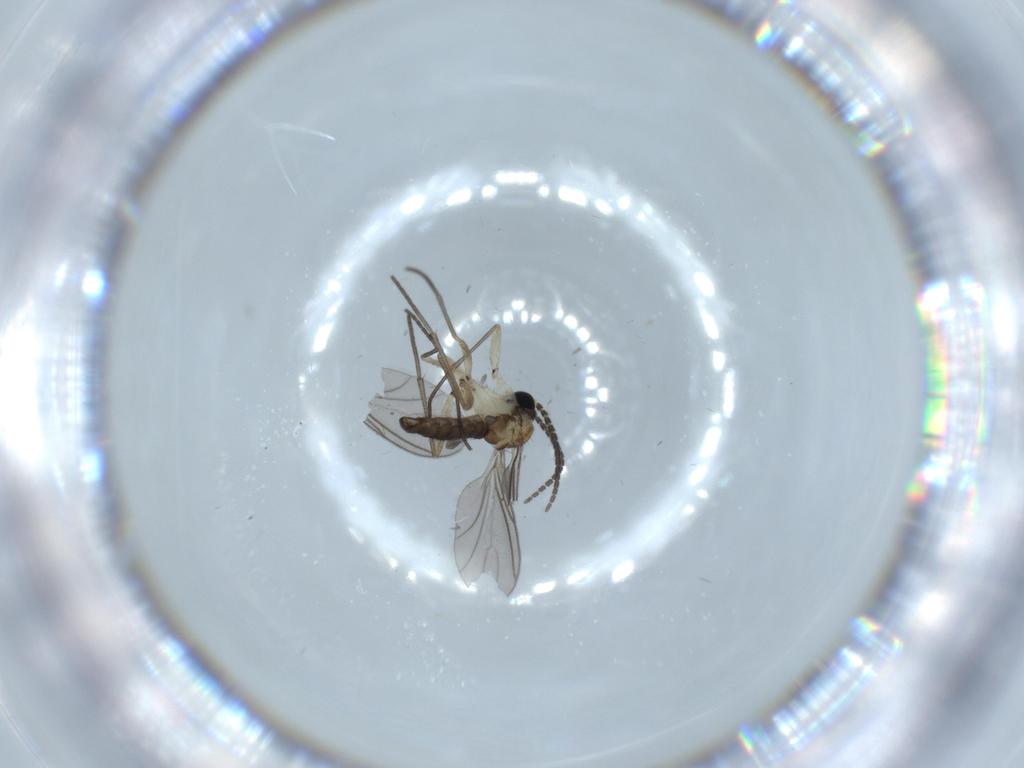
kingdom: Animalia
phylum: Arthropoda
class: Insecta
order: Diptera
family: Sciaridae
